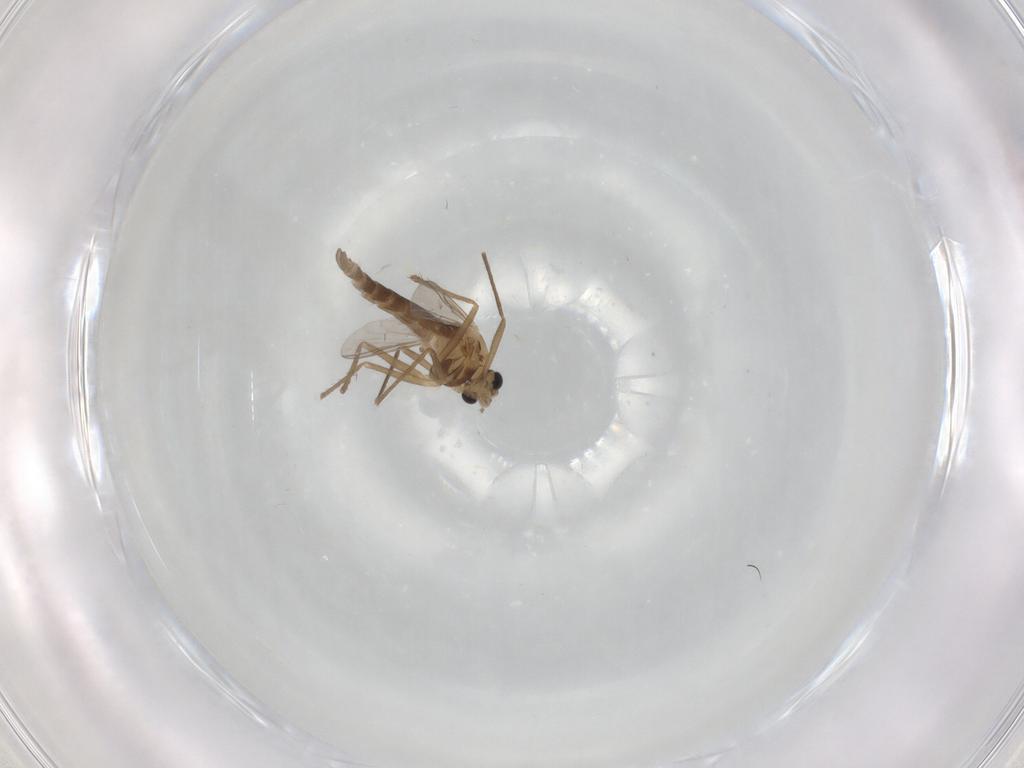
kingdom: Animalia
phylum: Arthropoda
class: Insecta
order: Diptera
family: Chironomidae
